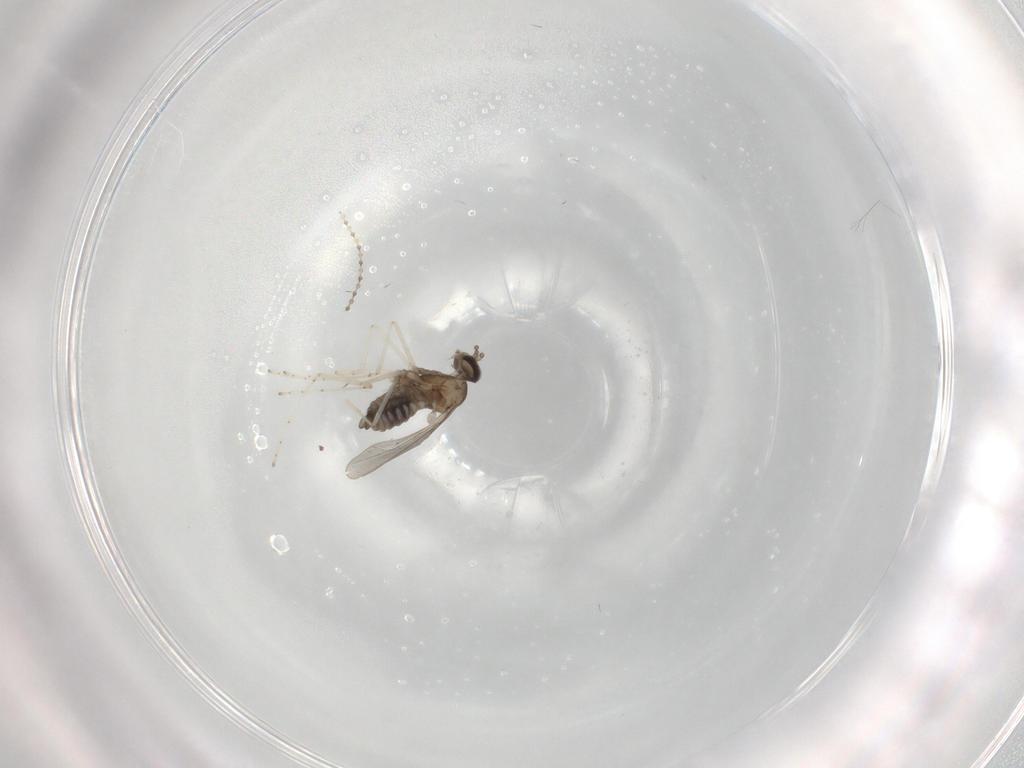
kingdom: Animalia
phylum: Arthropoda
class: Insecta
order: Diptera
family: Cecidomyiidae
